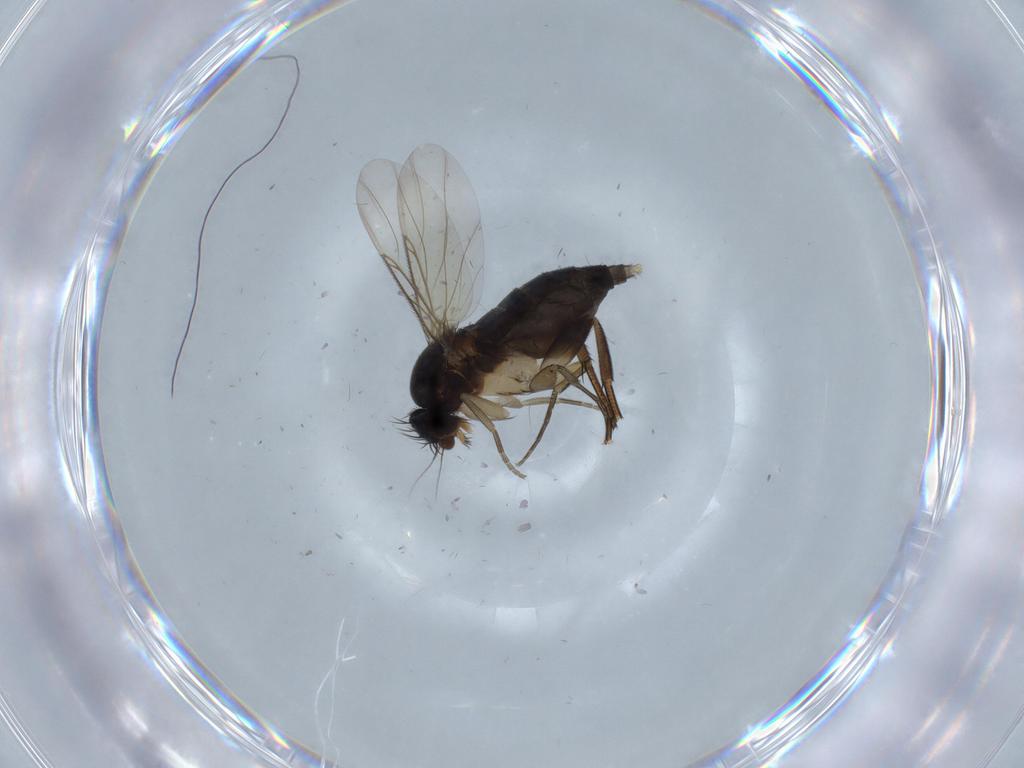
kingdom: Animalia
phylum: Arthropoda
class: Insecta
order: Diptera
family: Phoridae
